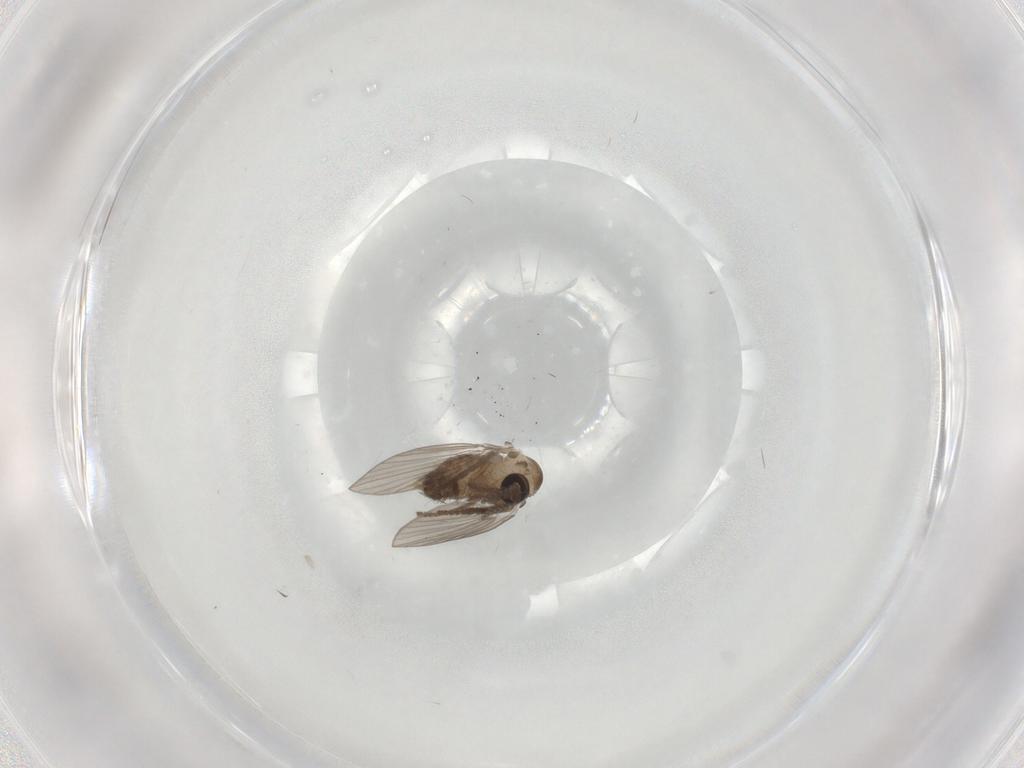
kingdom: Animalia
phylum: Arthropoda
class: Insecta
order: Diptera
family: Psychodidae
